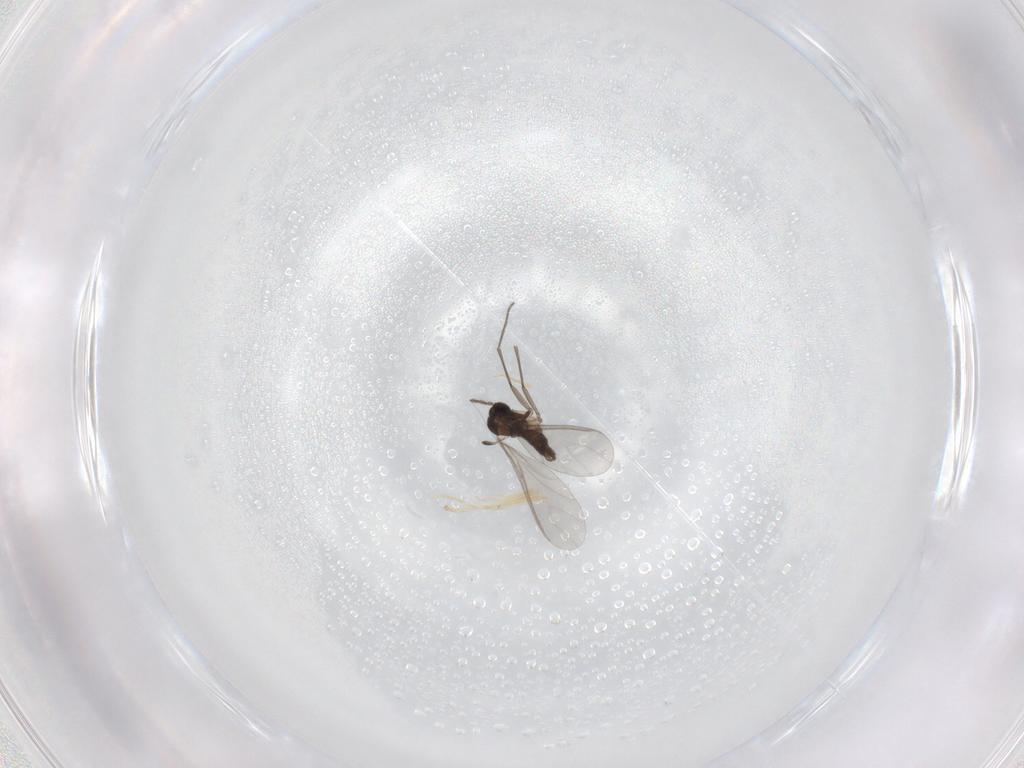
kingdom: Animalia
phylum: Arthropoda
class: Insecta
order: Diptera
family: Sciaridae
